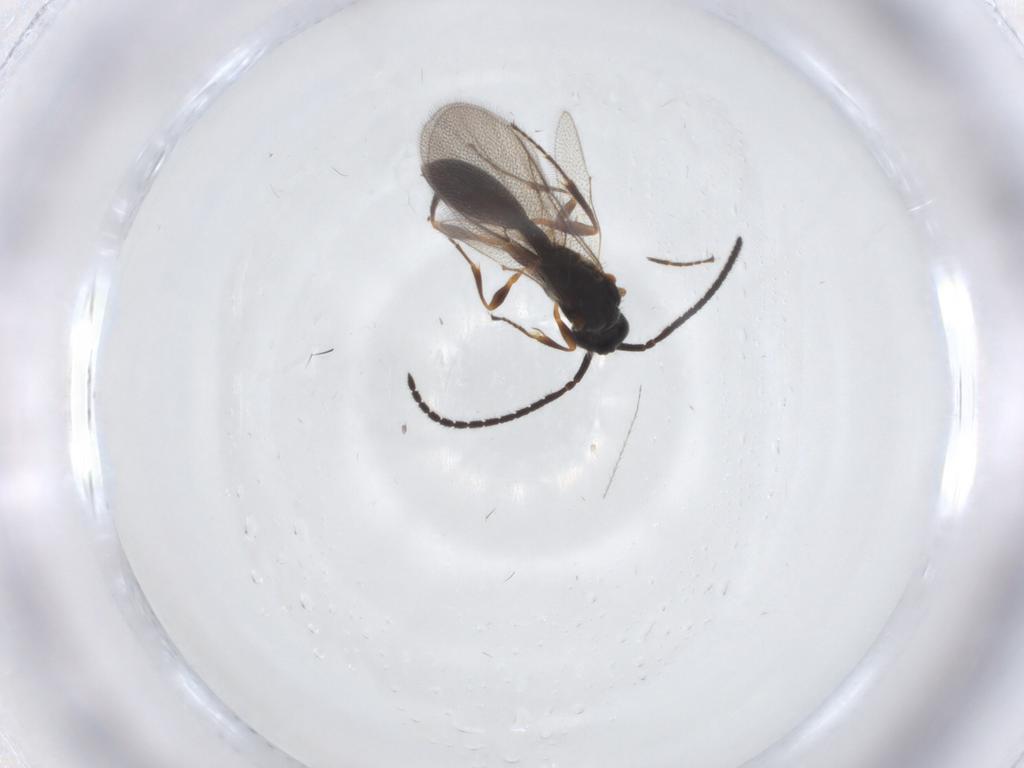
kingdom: Animalia
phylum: Arthropoda
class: Insecta
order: Hymenoptera
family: Diapriidae
